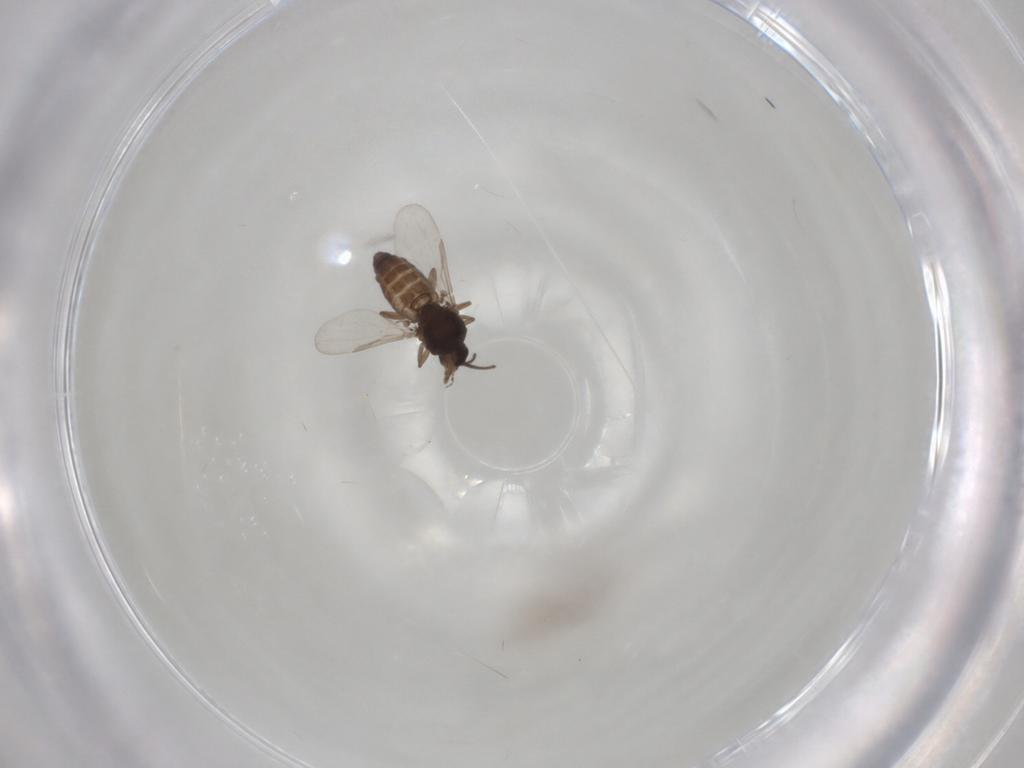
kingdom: Animalia
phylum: Arthropoda
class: Insecta
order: Diptera
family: Ceratopogonidae
